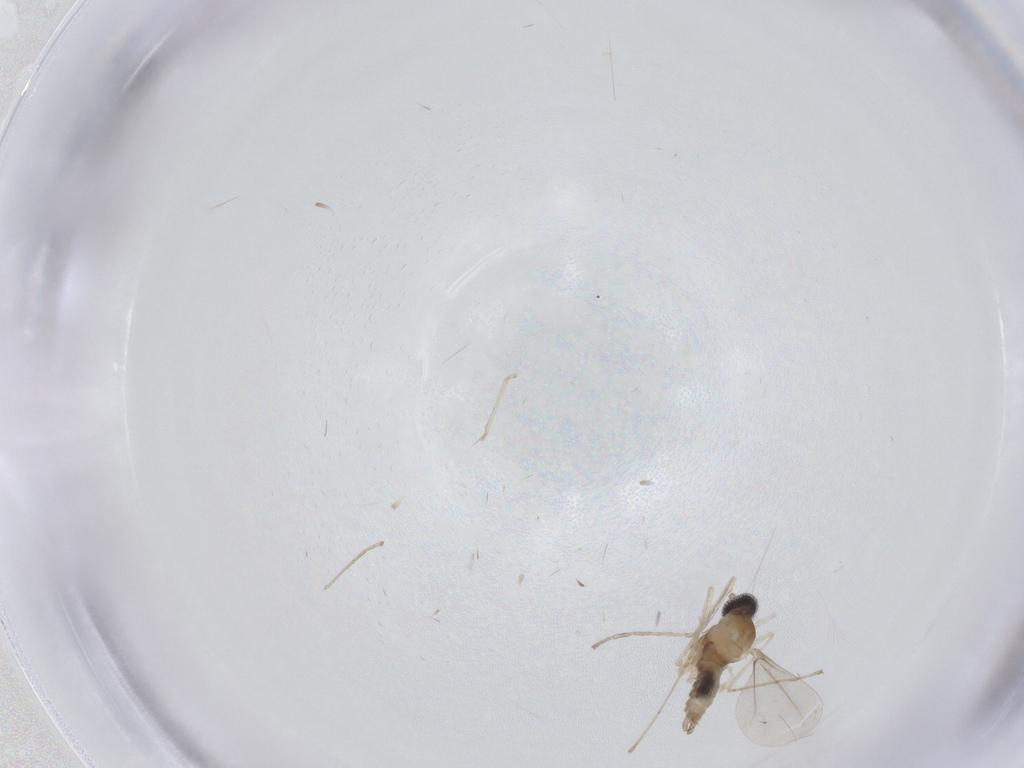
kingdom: Animalia
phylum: Arthropoda
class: Insecta
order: Diptera
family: Cecidomyiidae
